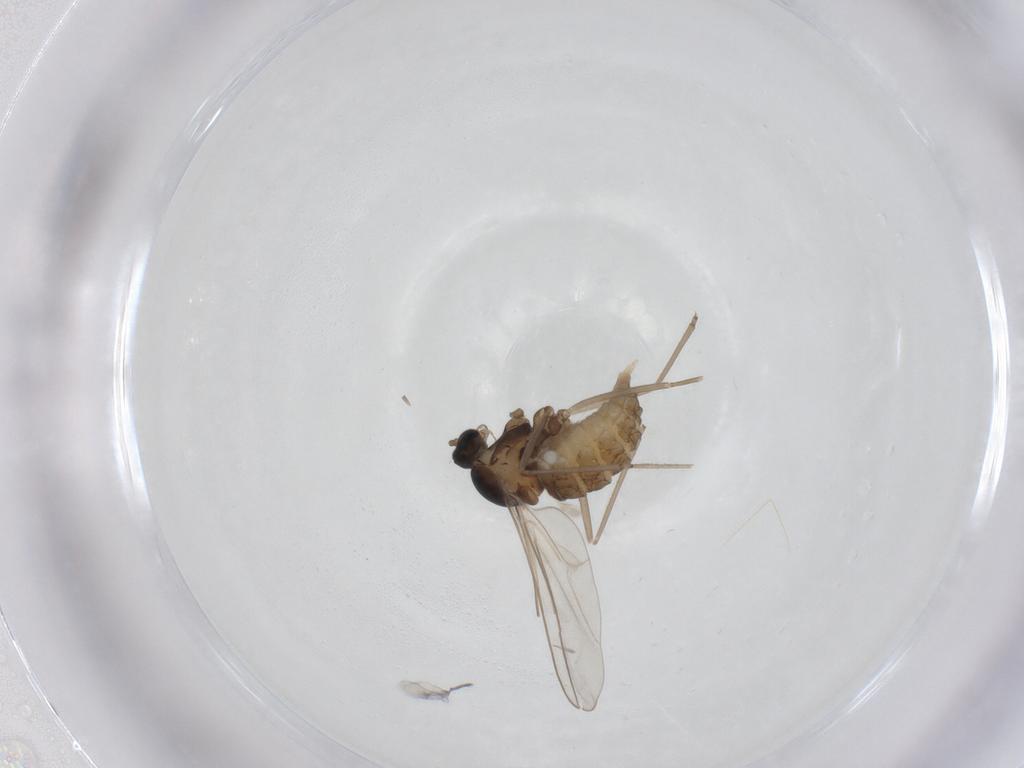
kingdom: Animalia
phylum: Arthropoda
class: Insecta
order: Diptera
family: Cecidomyiidae
